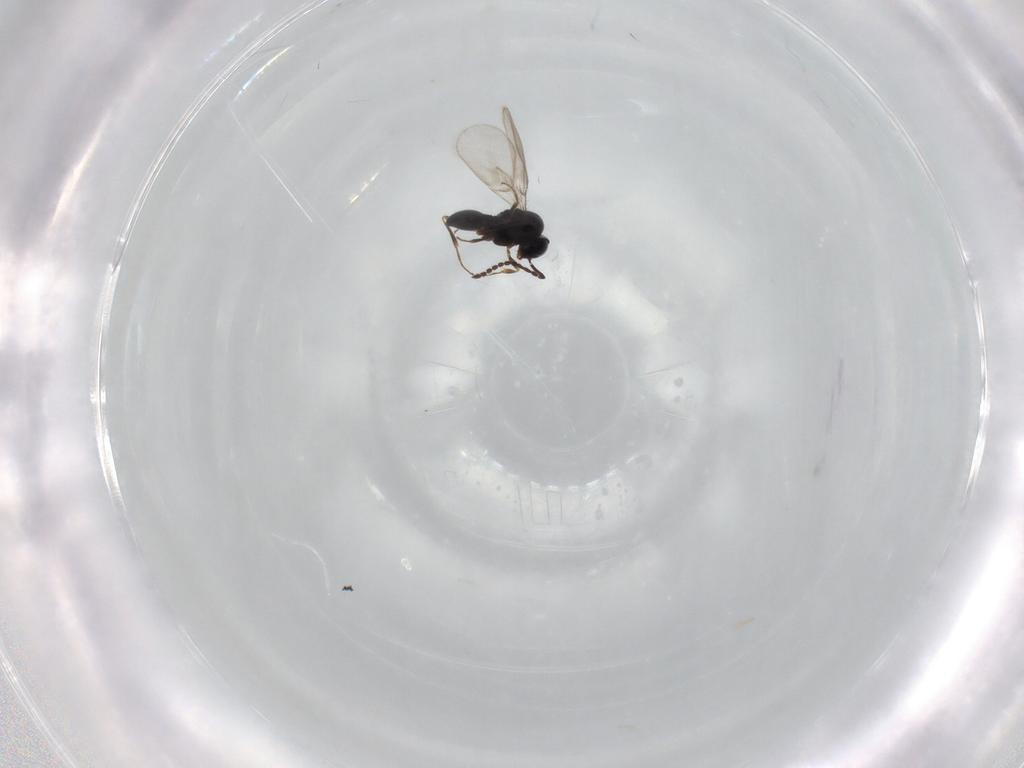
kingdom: Animalia
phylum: Arthropoda
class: Insecta
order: Hymenoptera
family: Scelionidae
